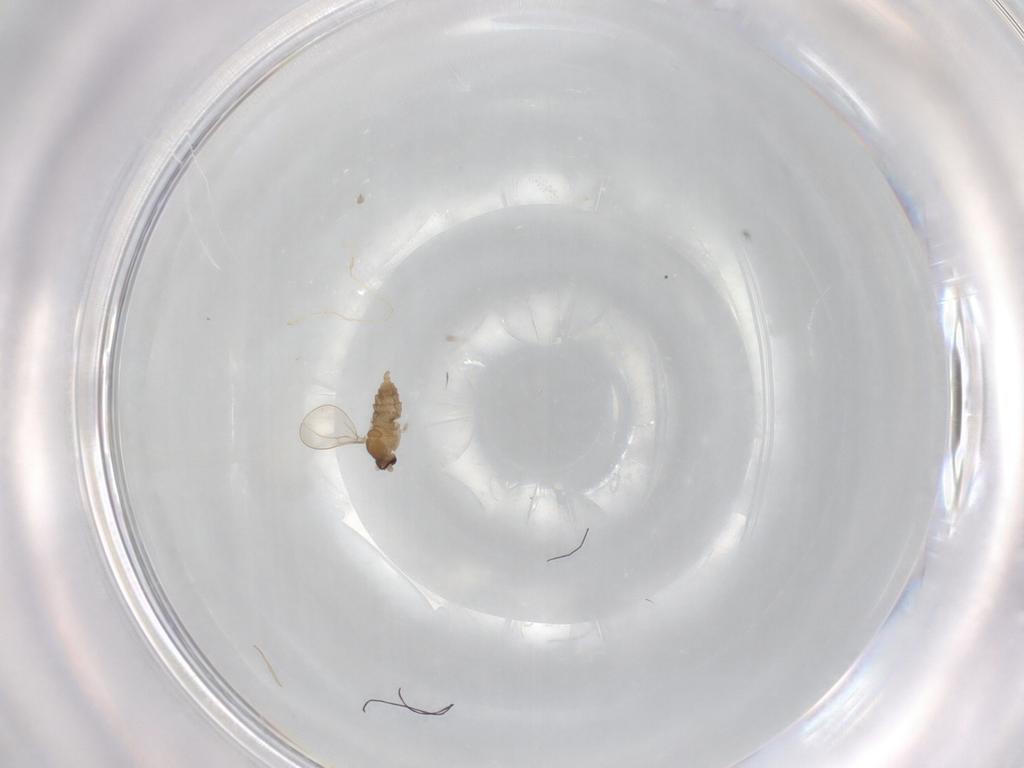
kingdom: Animalia
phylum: Arthropoda
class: Insecta
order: Diptera
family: Cecidomyiidae
